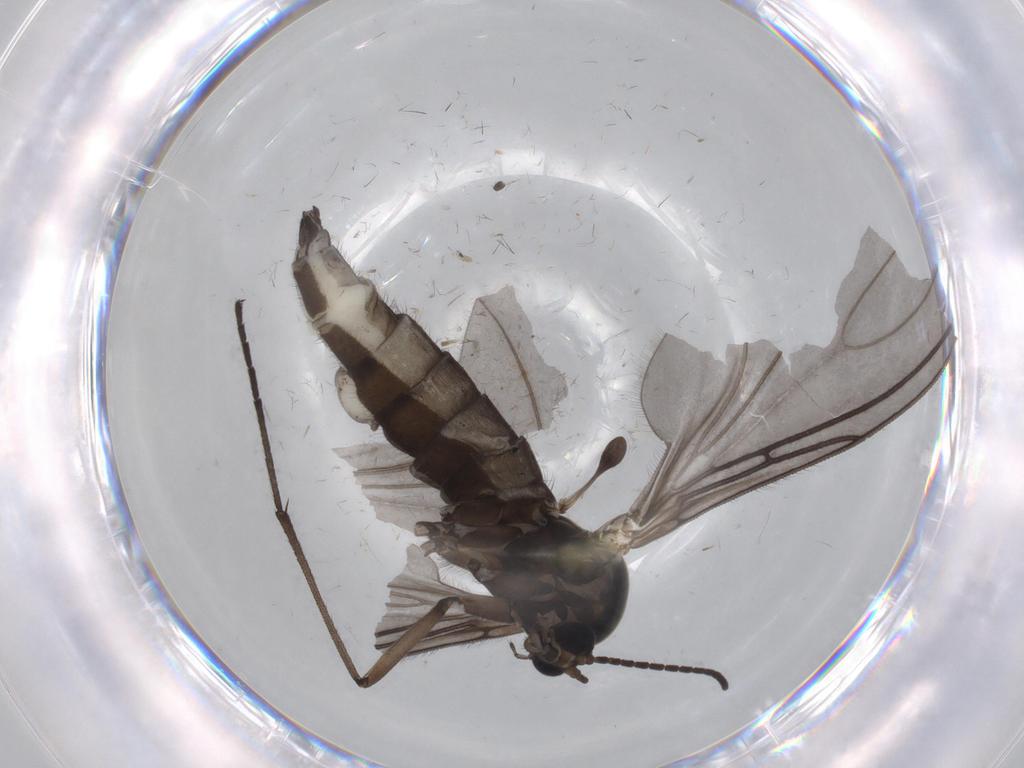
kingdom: Animalia
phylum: Arthropoda
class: Insecta
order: Diptera
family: Sciaridae
